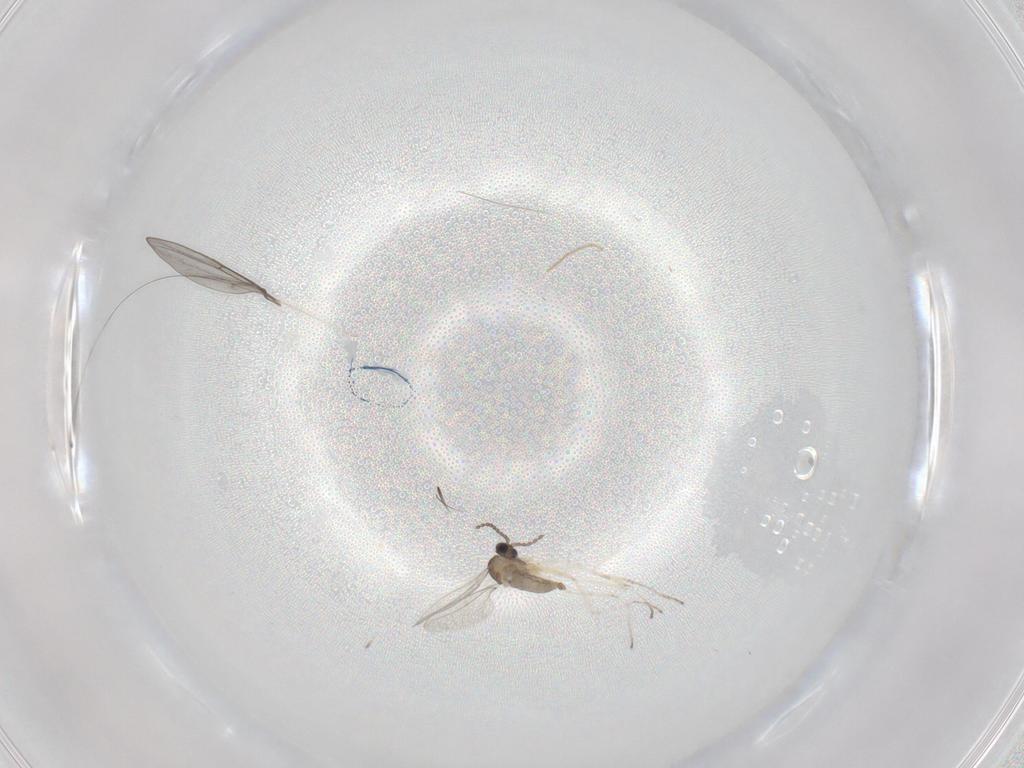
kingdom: Animalia
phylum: Arthropoda
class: Insecta
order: Diptera
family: Cecidomyiidae
